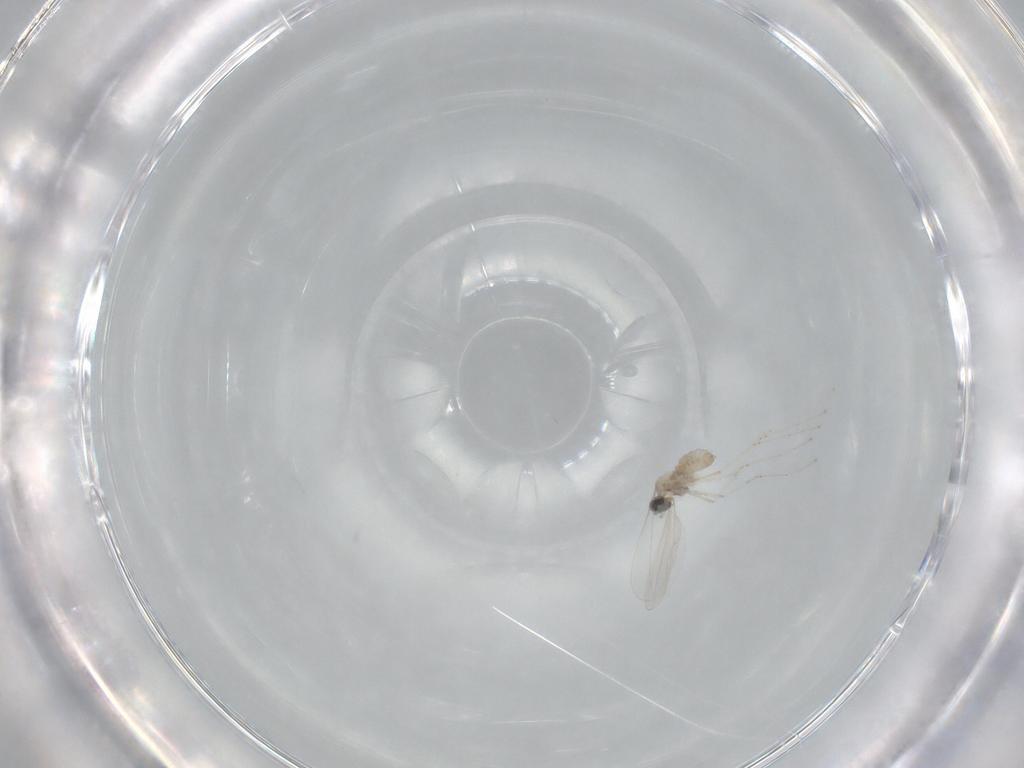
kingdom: Animalia
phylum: Arthropoda
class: Insecta
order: Diptera
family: Cecidomyiidae
